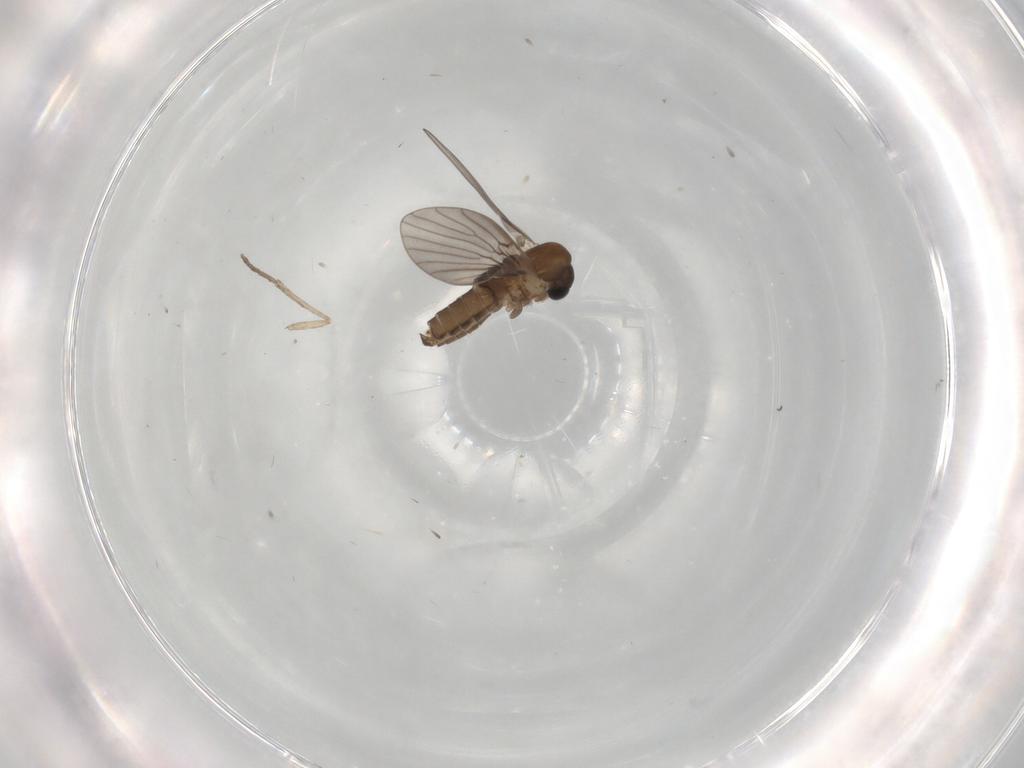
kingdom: Animalia
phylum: Arthropoda
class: Insecta
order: Diptera
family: Psychodidae
